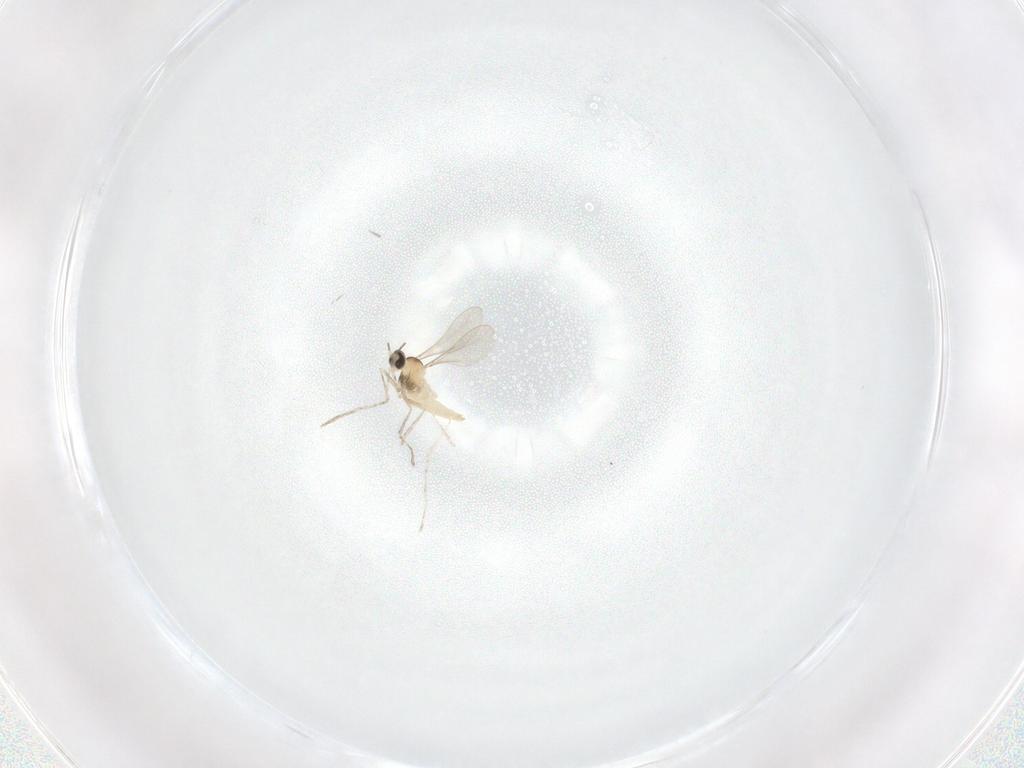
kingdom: Animalia
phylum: Arthropoda
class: Insecta
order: Diptera
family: Cecidomyiidae
